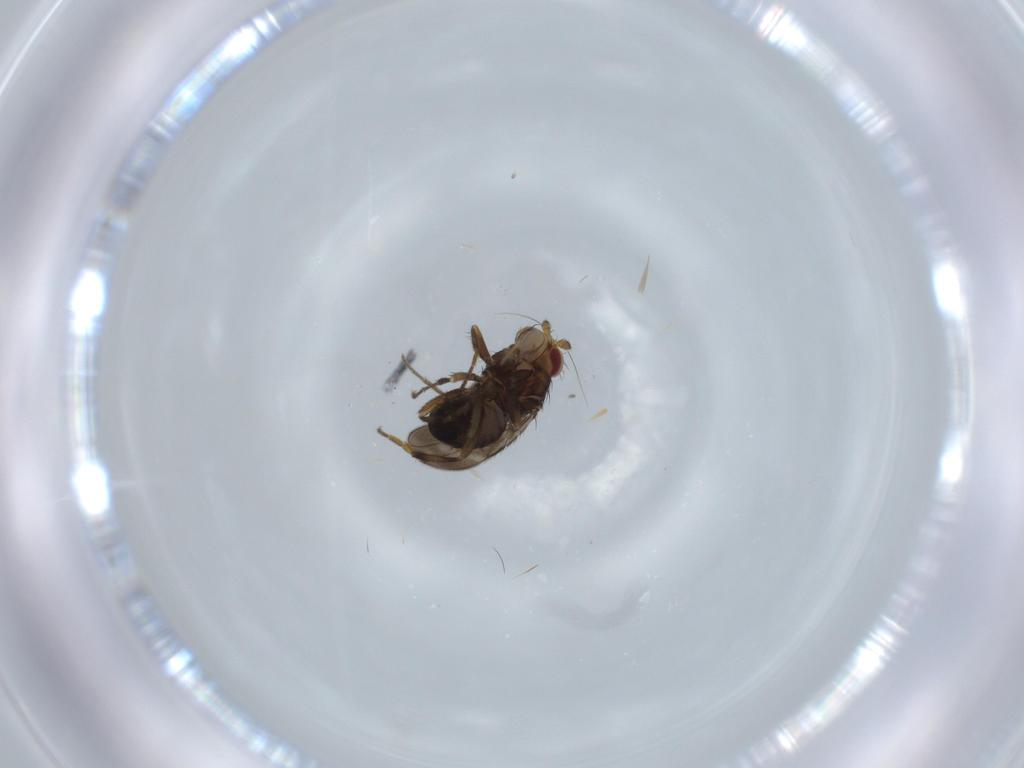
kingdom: Animalia
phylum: Arthropoda
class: Insecta
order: Diptera
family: Sphaeroceridae
